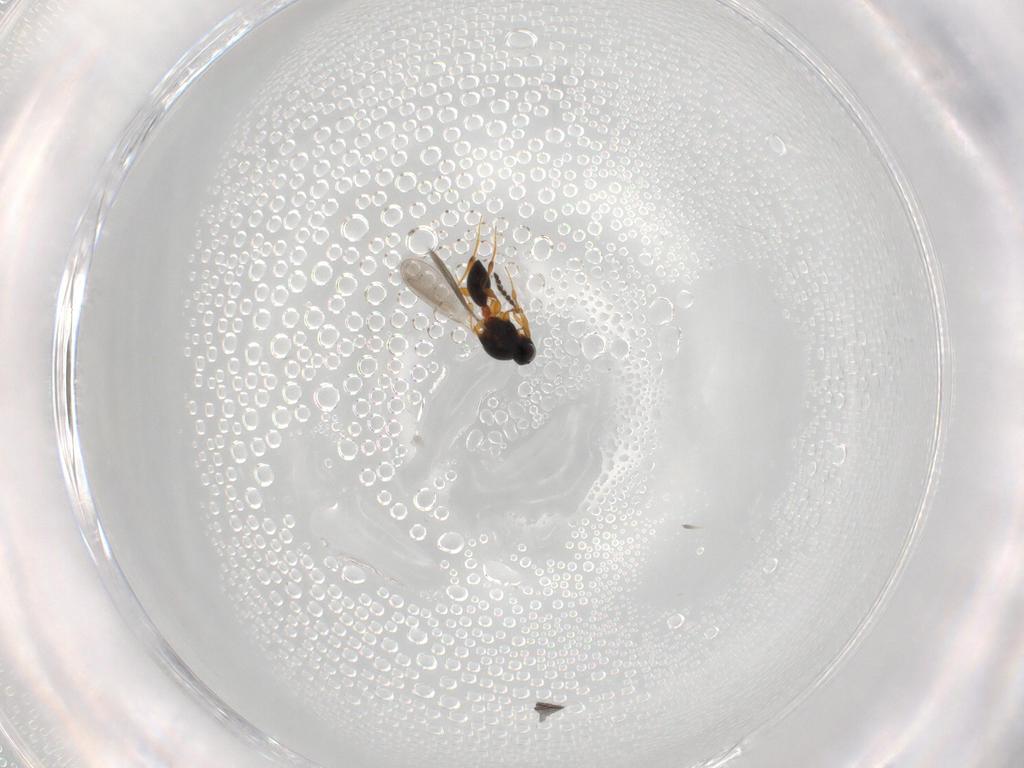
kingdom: Animalia
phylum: Arthropoda
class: Insecta
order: Hymenoptera
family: Platygastridae
